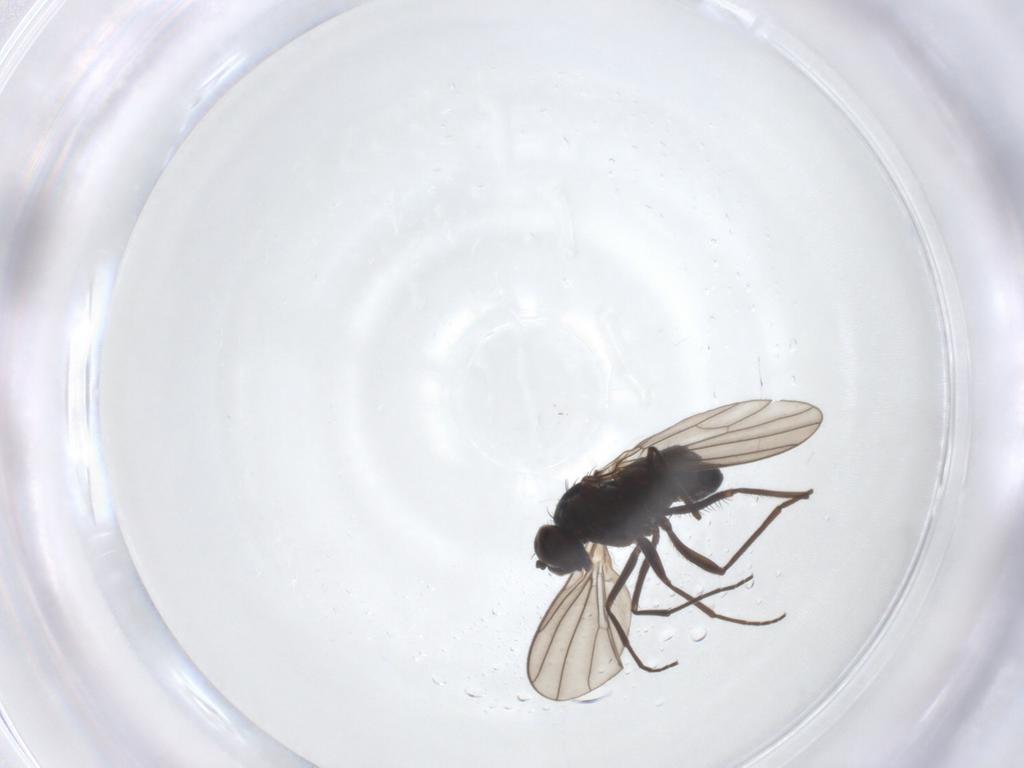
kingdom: Animalia
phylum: Arthropoda
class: Insecta
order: Diptera
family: Dolichopodidae
